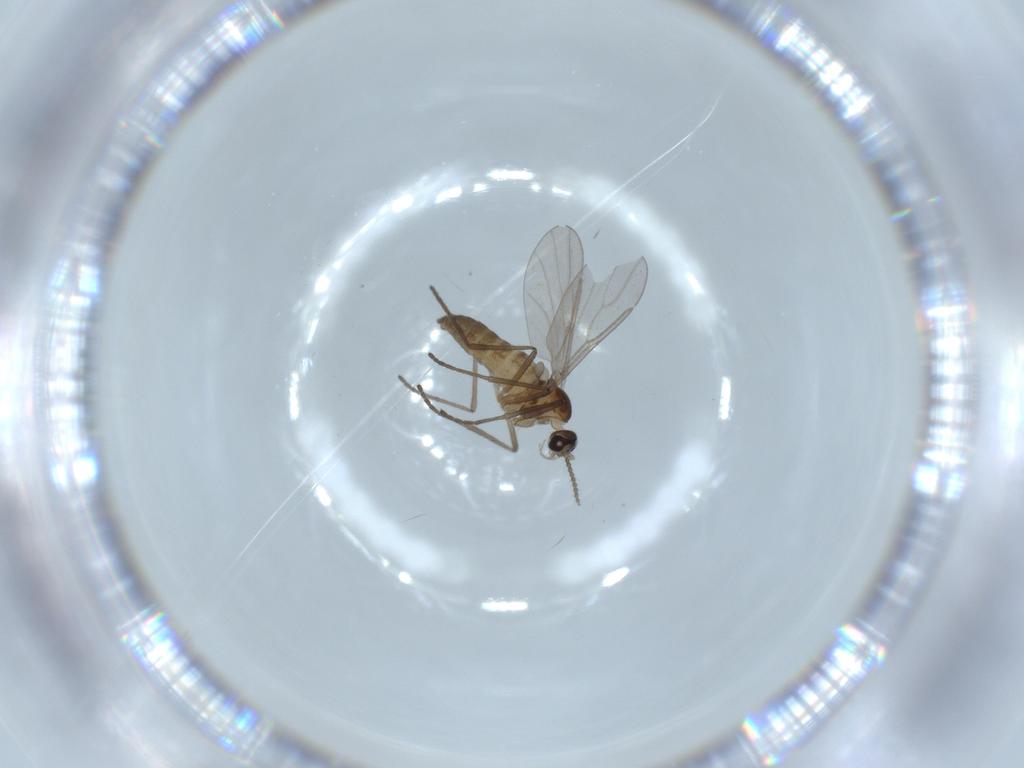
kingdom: Animalia
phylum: Arthropoda
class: Insecta
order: Diptera
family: Cecidomyiidae
